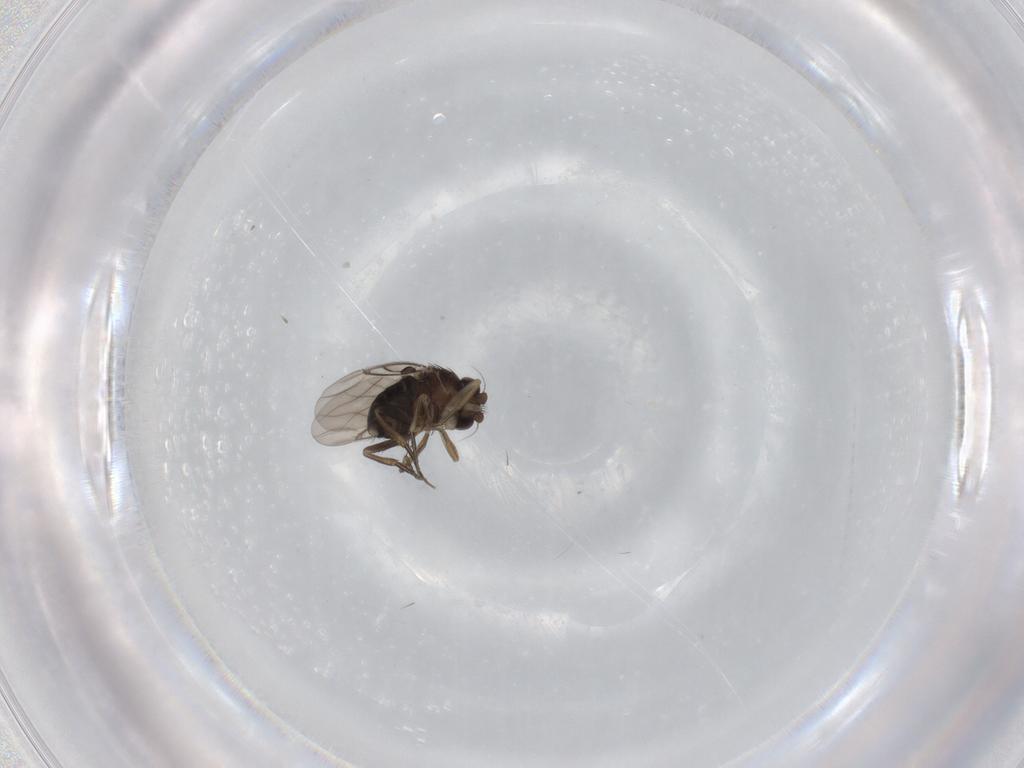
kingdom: Animalia
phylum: Arthropoda
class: Insecta
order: Diptera
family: Phoridae
